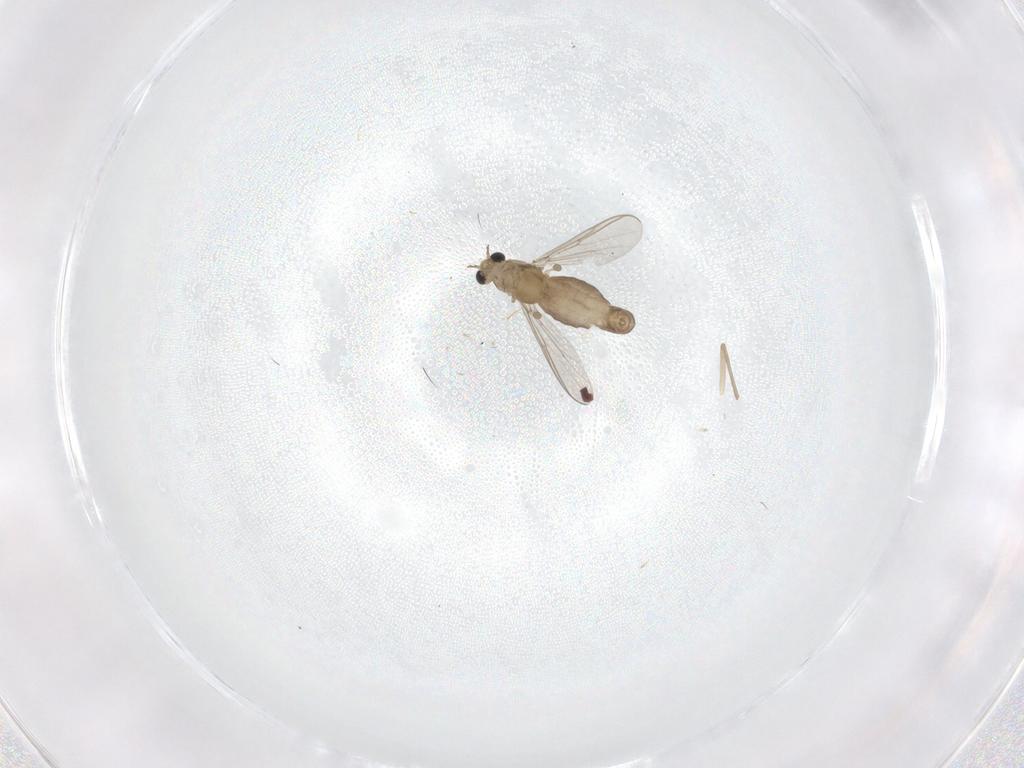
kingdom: Animalia
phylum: Arthropoda
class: Insecta
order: Diptera
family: Chironomidae
